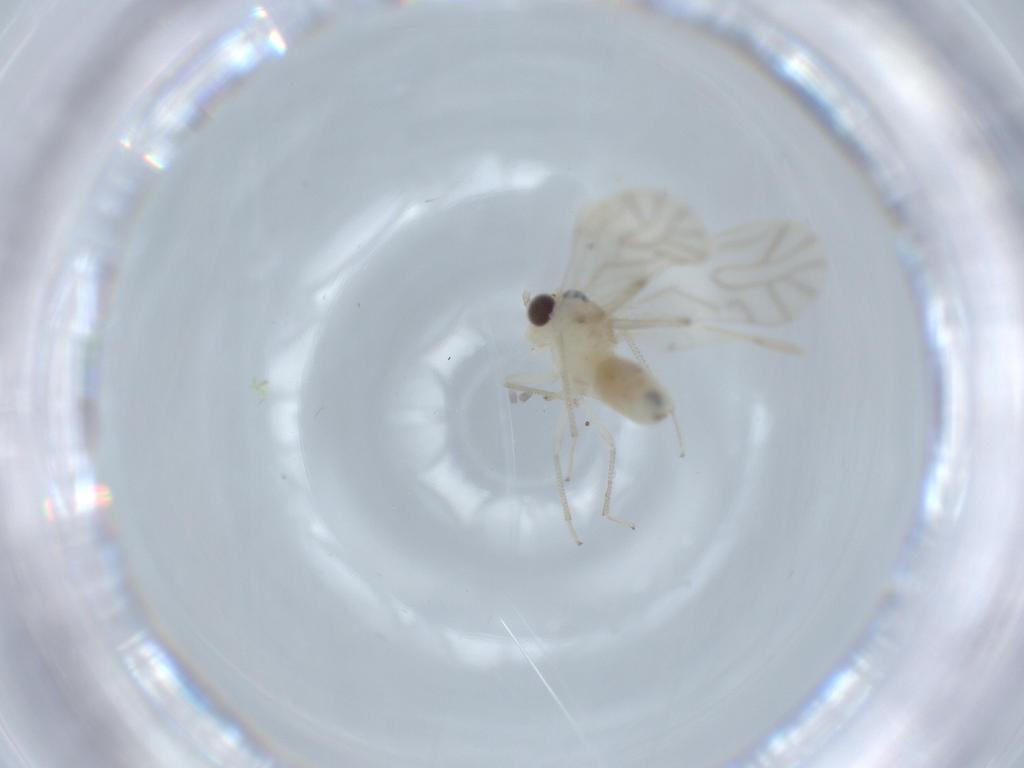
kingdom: Animalia
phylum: Arthropoda
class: Insecta
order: Psocodea
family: Caeciliusidae
